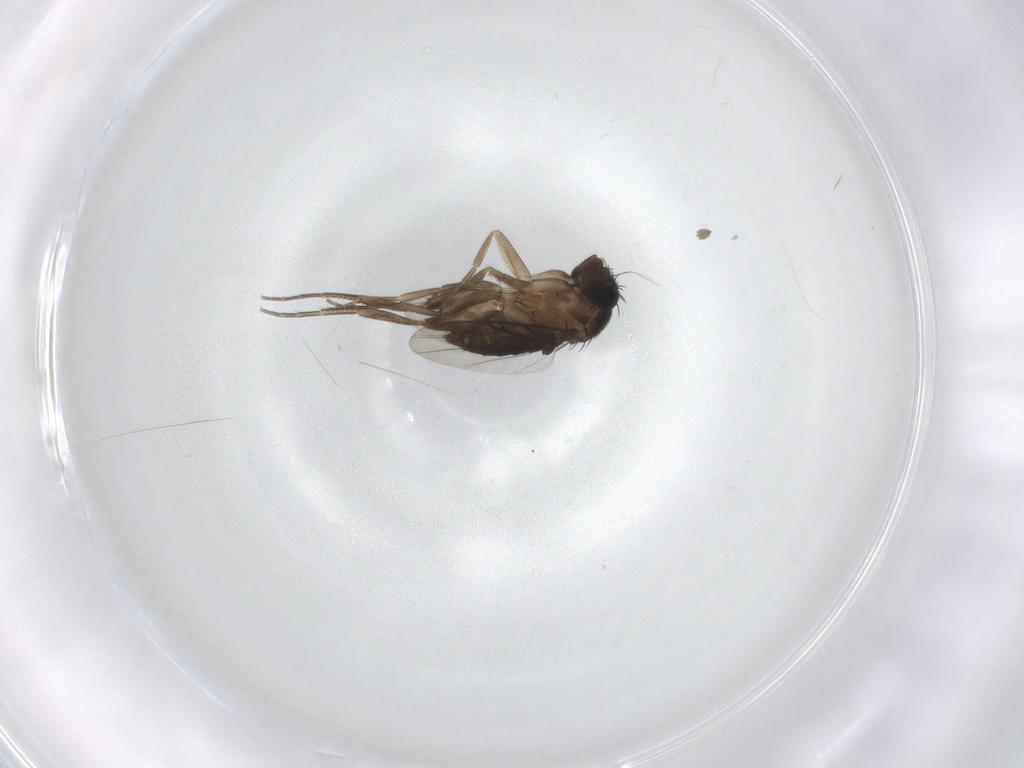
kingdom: Animalia
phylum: Arthropoda
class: Insecta
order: Diptera
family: Phoridae
